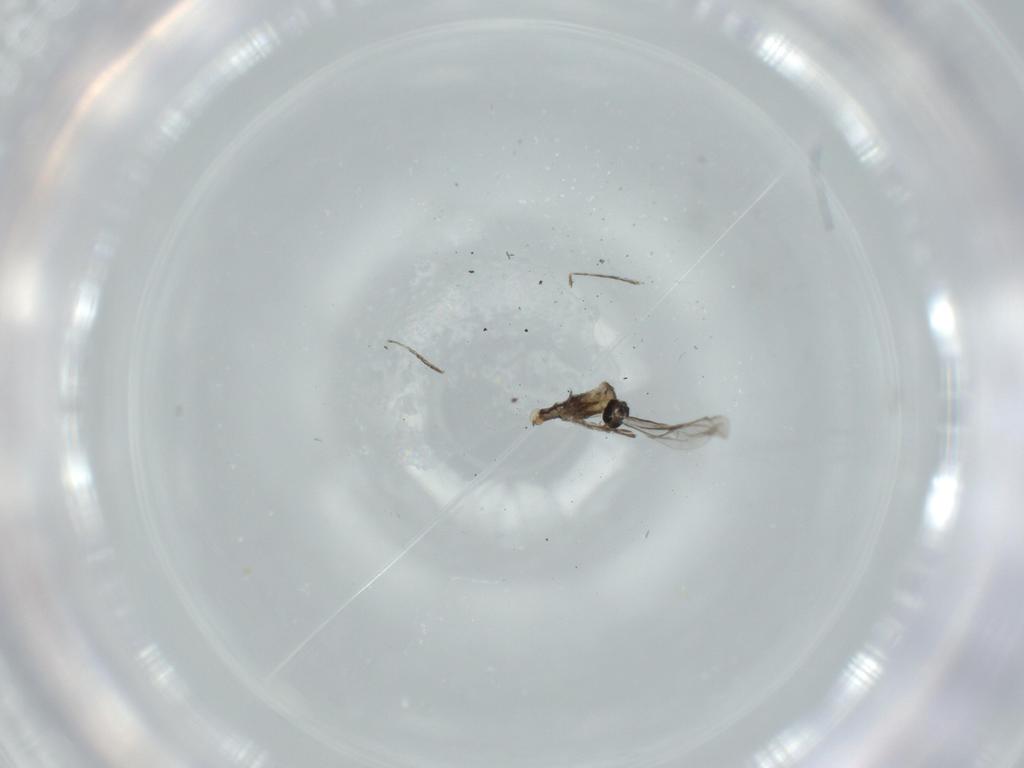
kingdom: Animalia
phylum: Arthropoda
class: Insecta
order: Diptera
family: Cecidomyiidae
